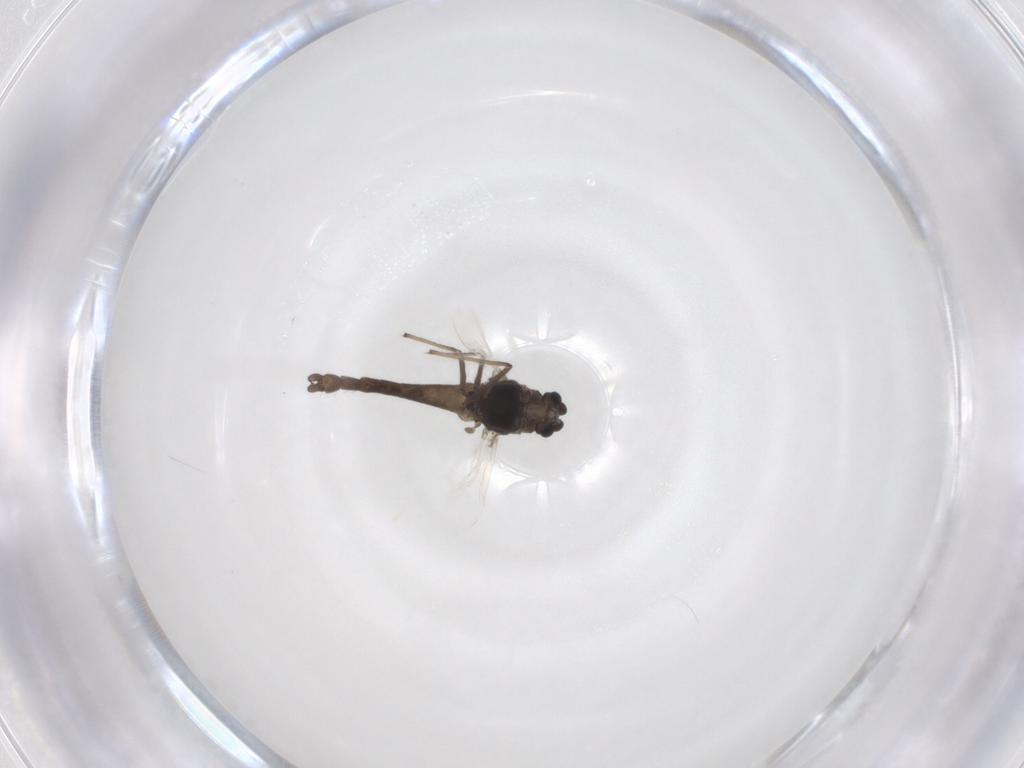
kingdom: Animalia
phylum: Arthropoda
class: Insecta
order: Diptera
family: Chironomidae
